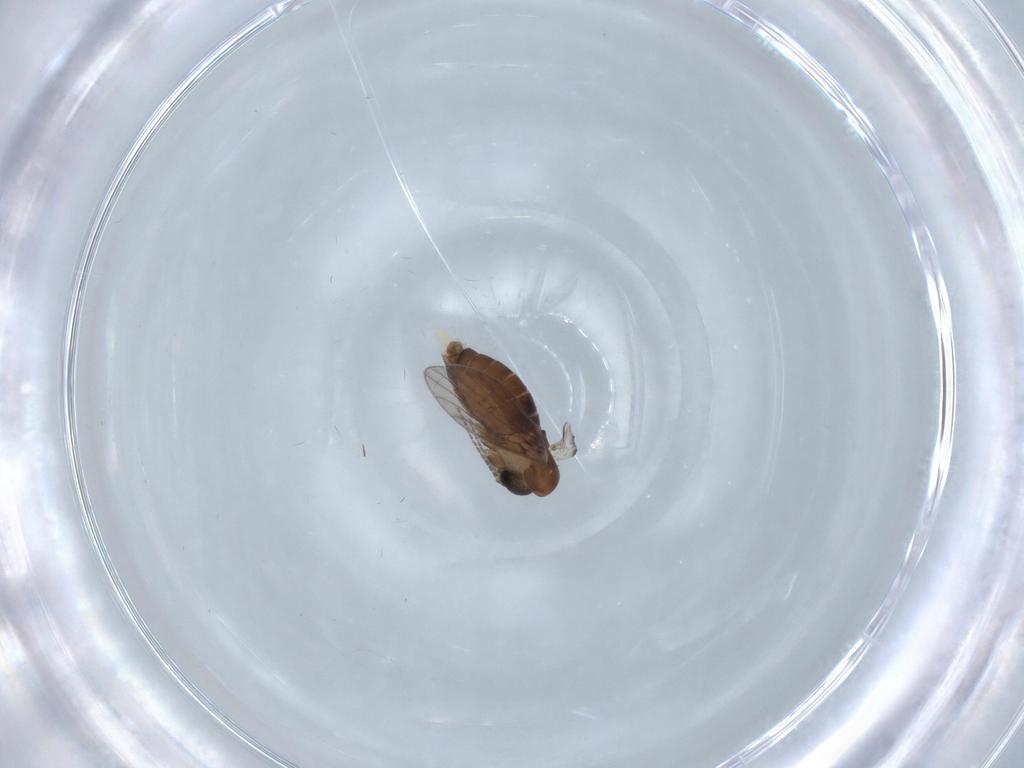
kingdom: Animalia
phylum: Arthropoda
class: Insecta
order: Diptera
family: Psychodidae
